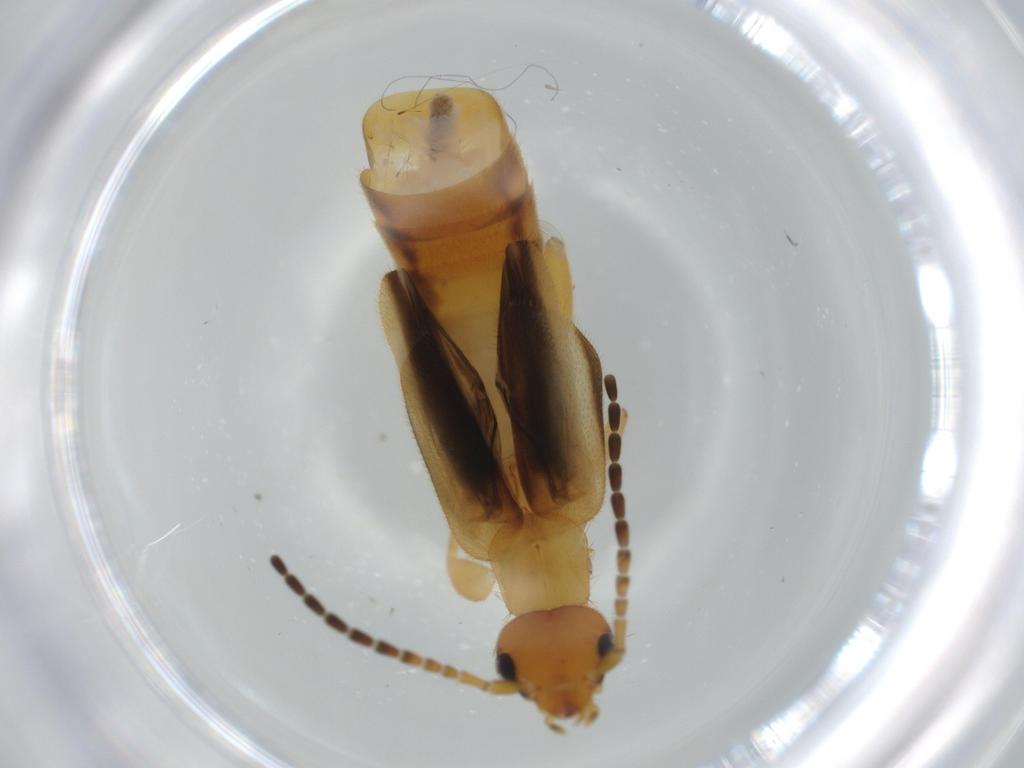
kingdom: Animalia
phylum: Arthropoda
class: Insecta
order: Dermaptera
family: Forficulidae
